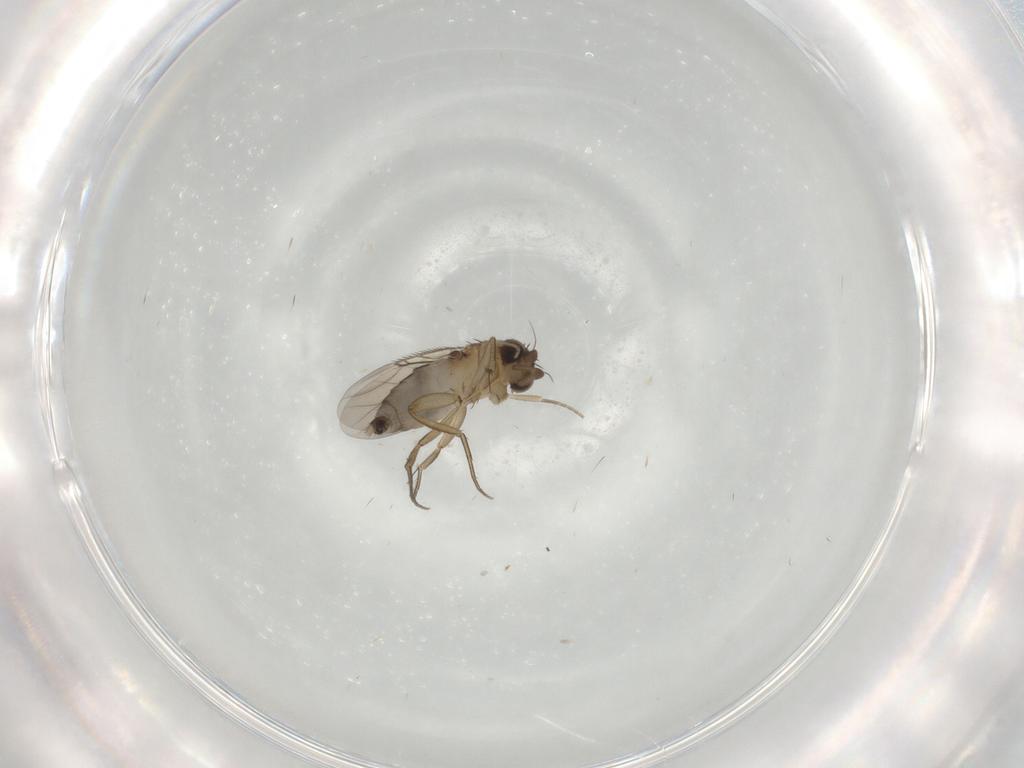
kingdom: Animalia
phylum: Arthropoda
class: Insecta
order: Diptera
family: Phoridae
